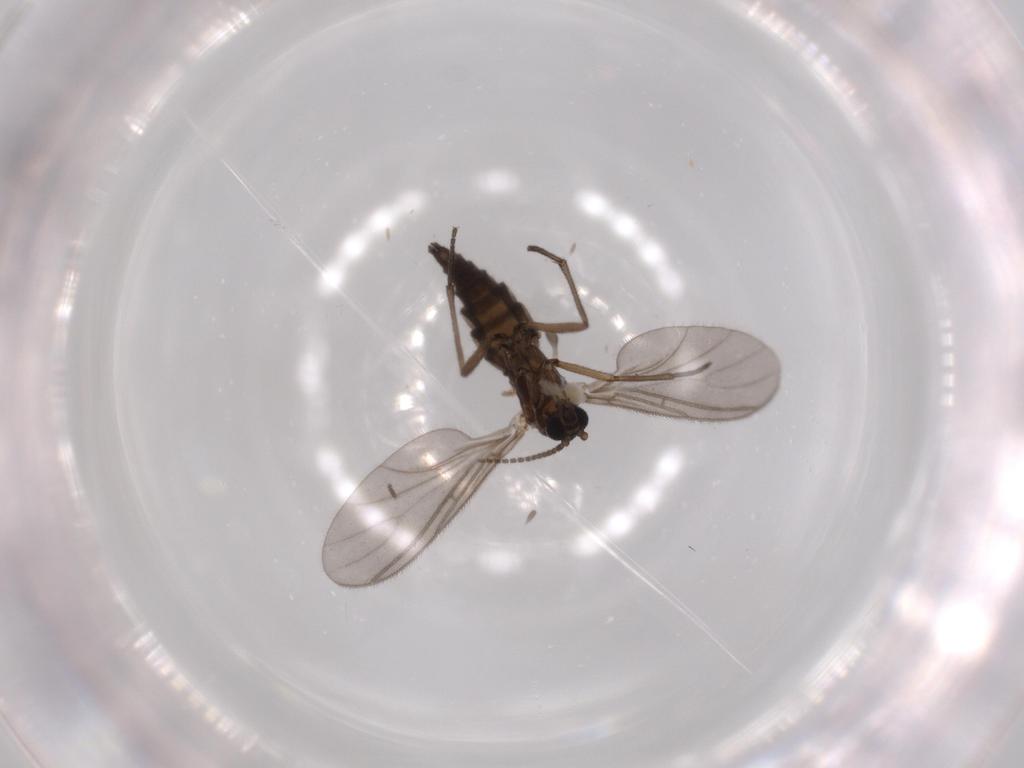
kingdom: Animalia
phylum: Arthropoda
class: Insecta
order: Diptera
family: Sciaridae
